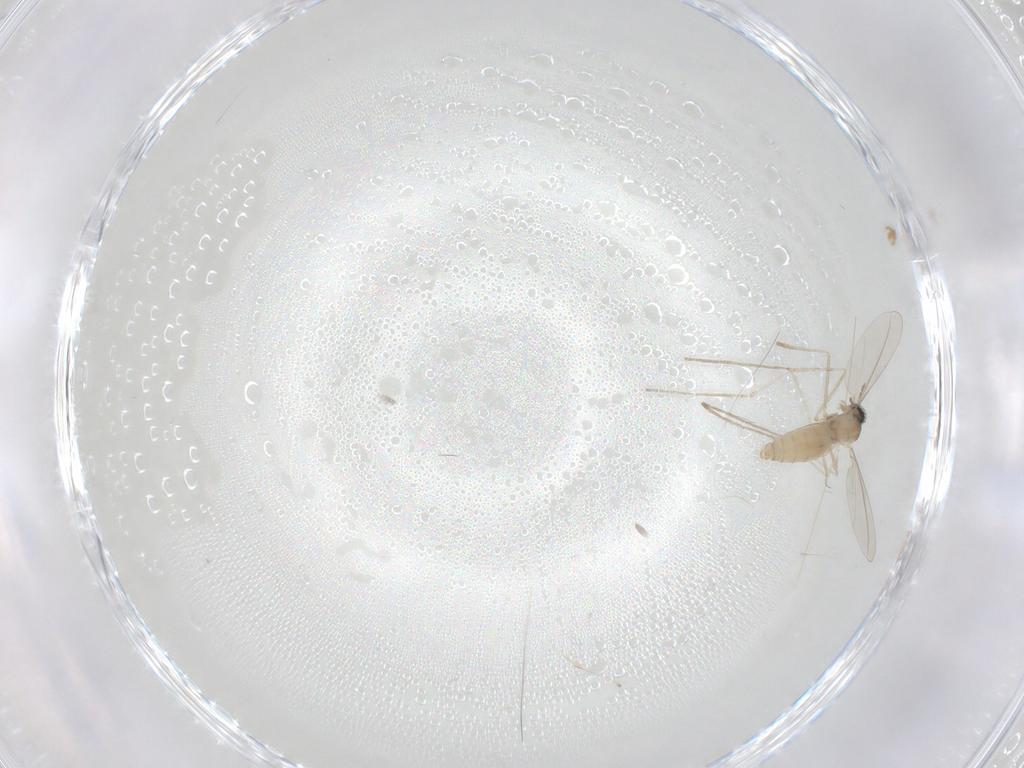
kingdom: Animalia
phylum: Arthropoda
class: Insecta
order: Diptera
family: Cecidomyiidae
